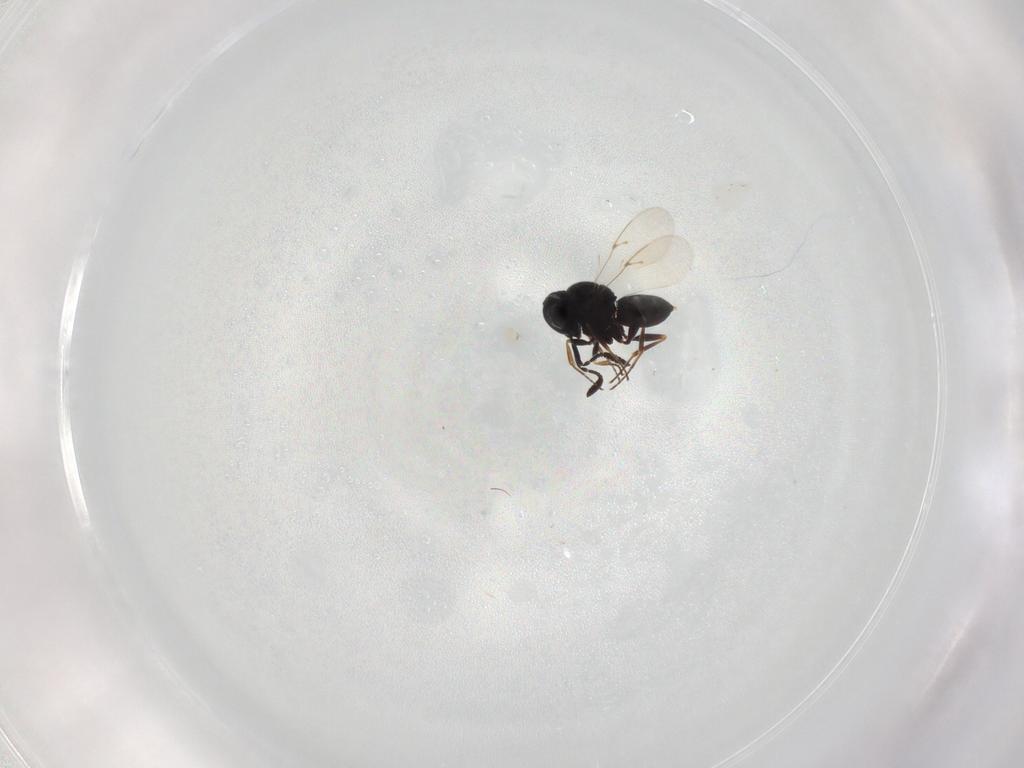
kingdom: Animalia
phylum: Arthropoda
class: Insecta
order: Hymenoptera
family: Scelionidae
